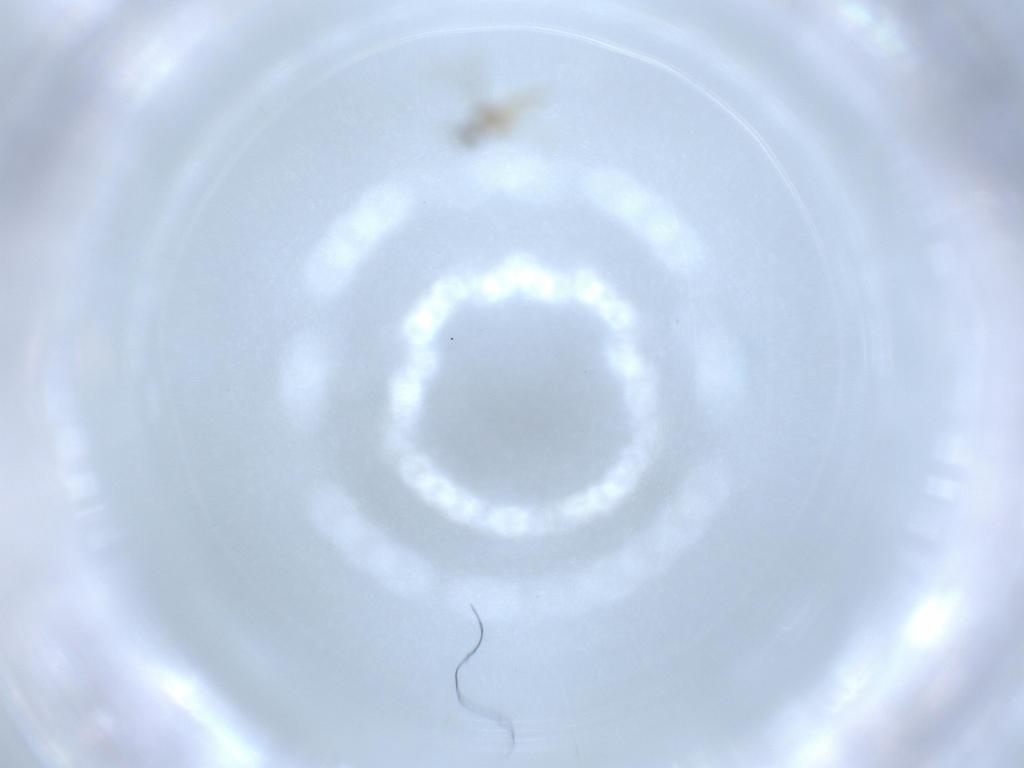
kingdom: Animalia
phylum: Arthropoda
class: Insecta
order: Diptera
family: Cecidomyiidae
